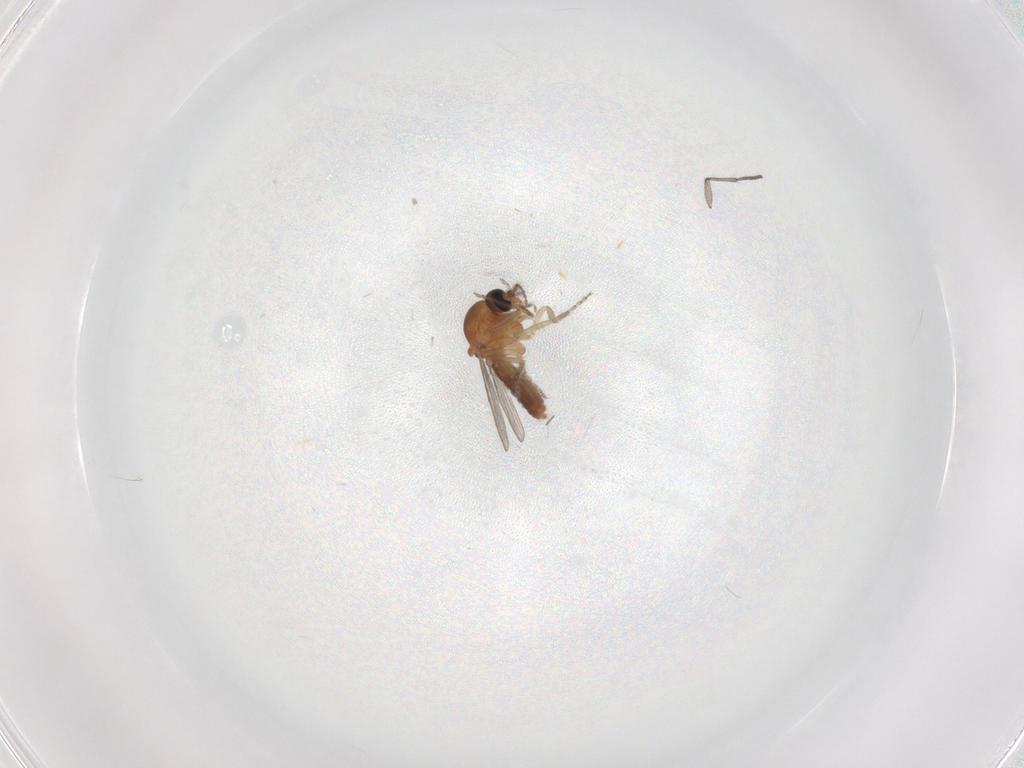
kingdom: Animalia
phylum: Arthropoda
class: Insecta
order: Diptera
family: Ceratopogonidae
